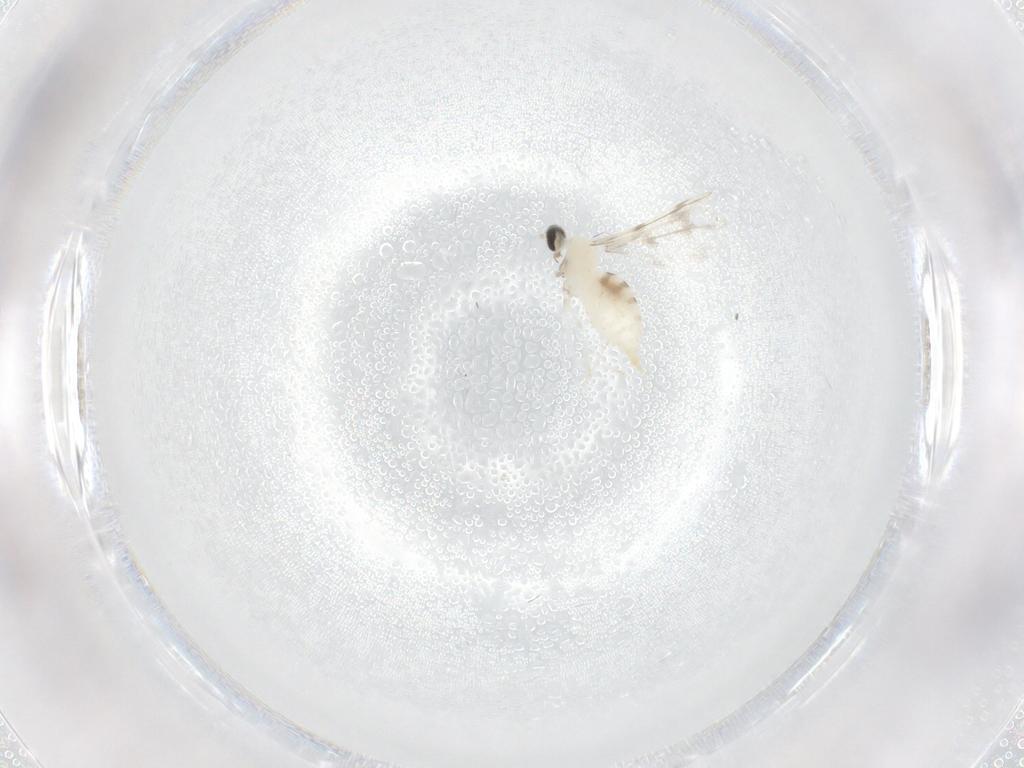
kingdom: Animalia
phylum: Arthropoda
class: Insecta
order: Diptera
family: Phoridae
